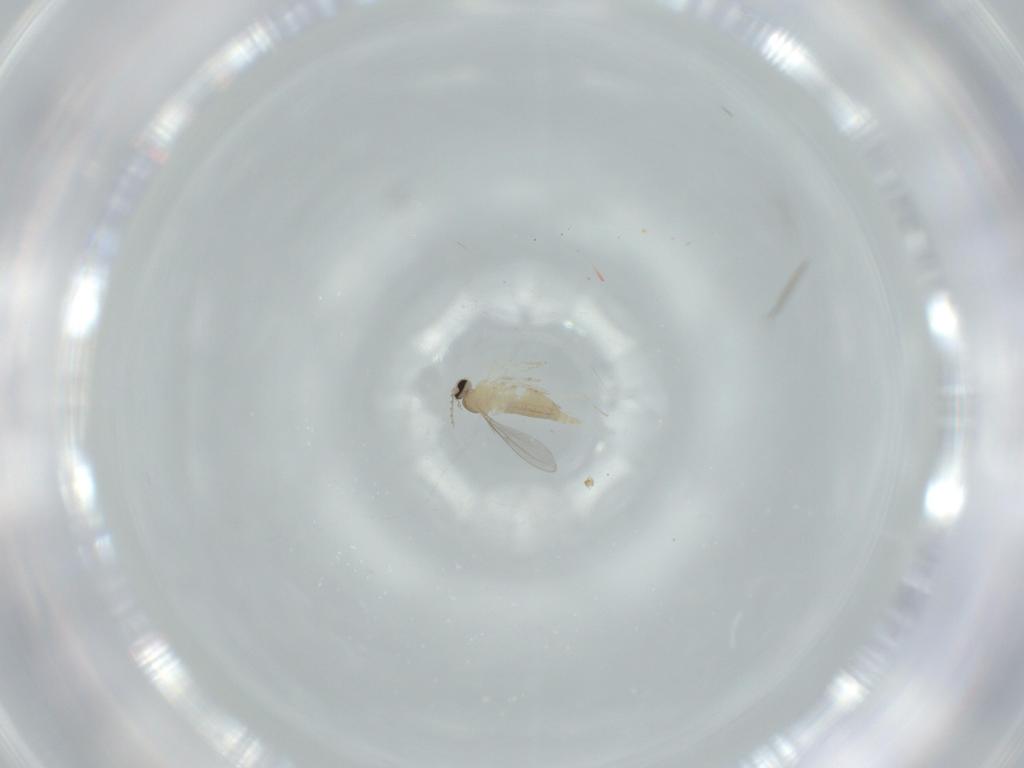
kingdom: Animalia
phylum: Arthropoda
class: Insecta
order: Diptera
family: Cecidomyiidae
